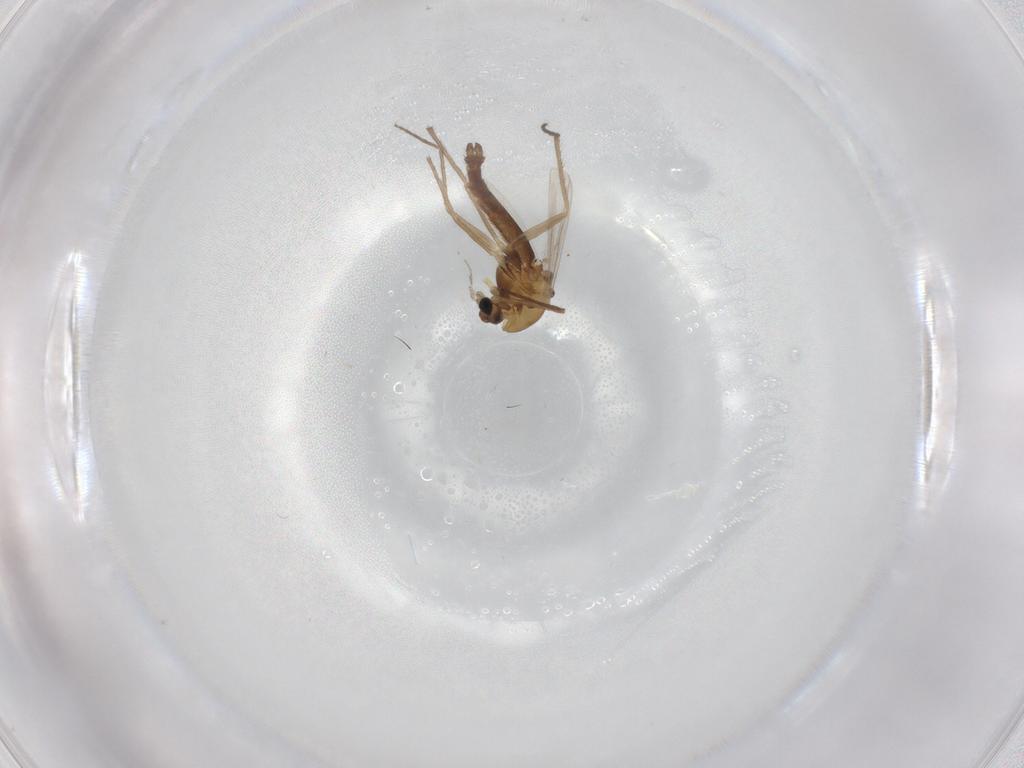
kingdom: Animalia
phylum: Arthropoda
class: Insecta
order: Diptera
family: Chironomidae
